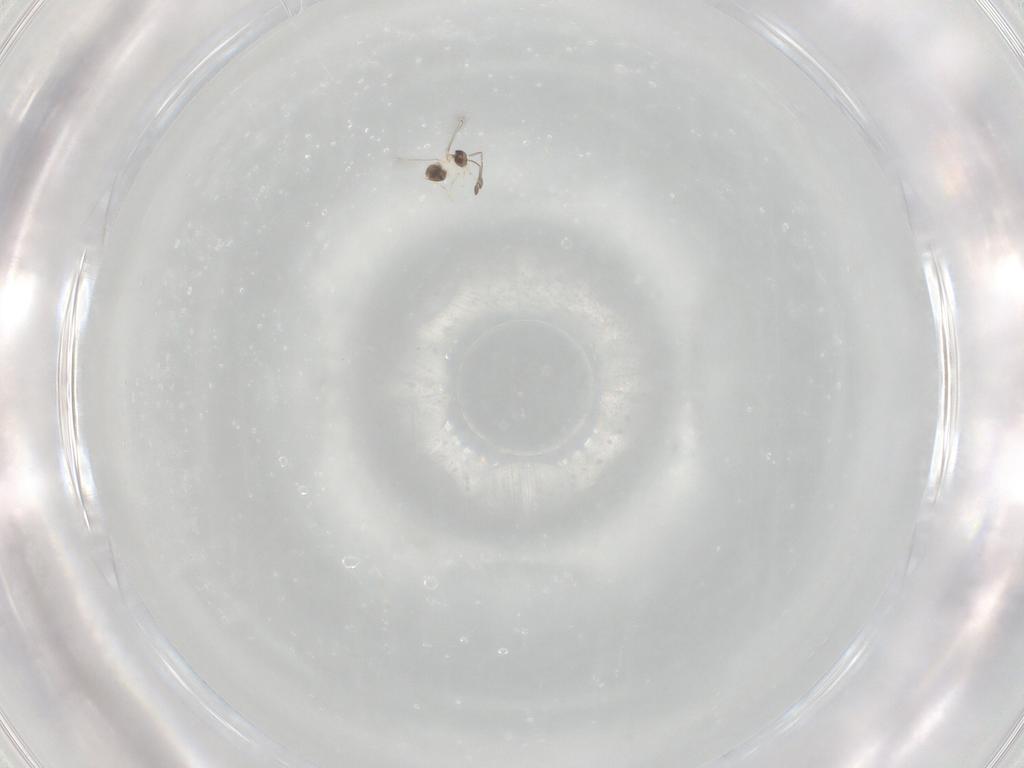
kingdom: Animalia
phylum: Arthropoda
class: Insecta
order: Hymenoptera
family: Mymaridae
